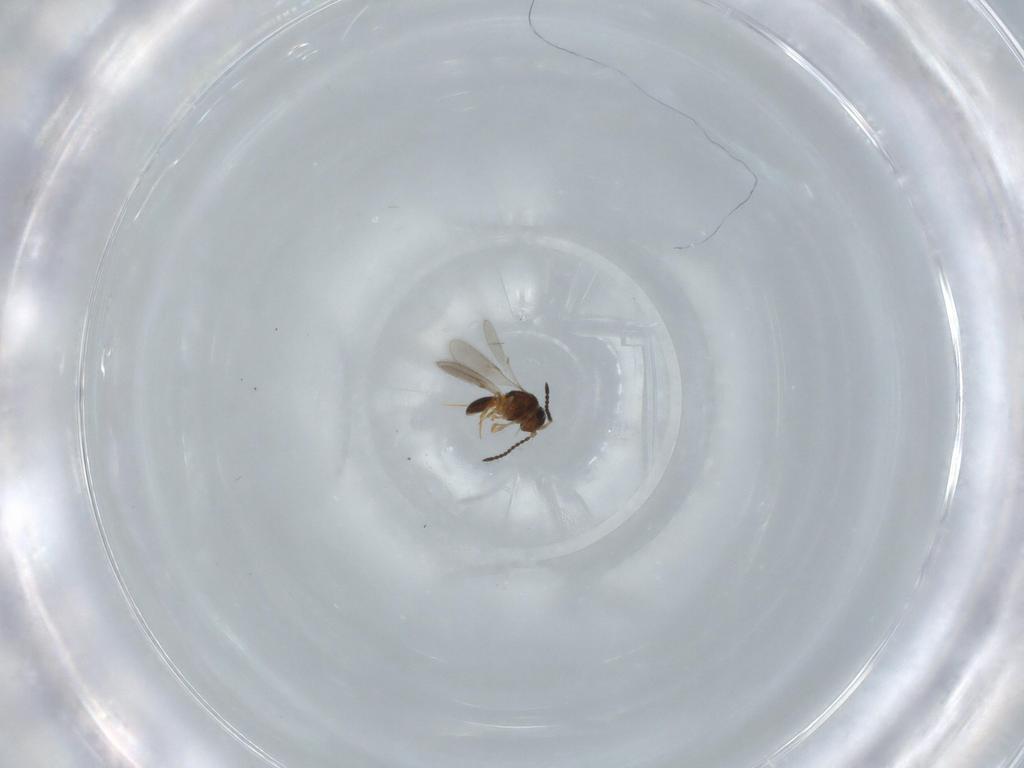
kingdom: Animalia
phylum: Arthropoda
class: Insecta
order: Hymenoptera
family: Scelionidae
